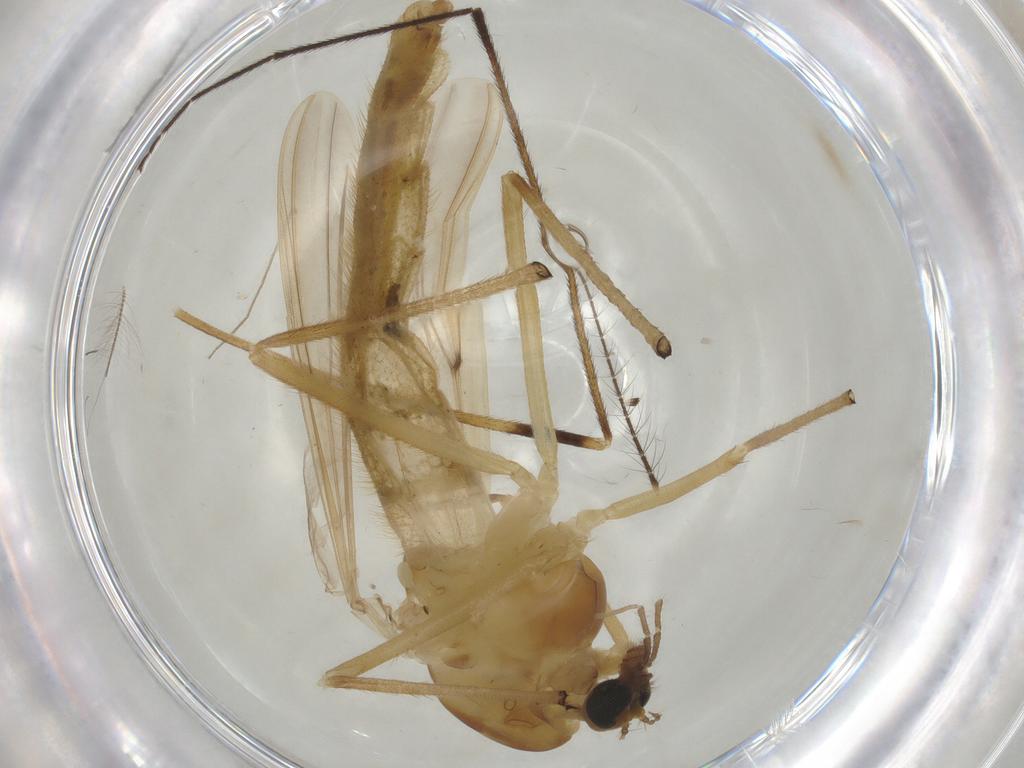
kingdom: Animalia
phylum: Arthropoda
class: Insecta
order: Diptera
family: Chironomidae
